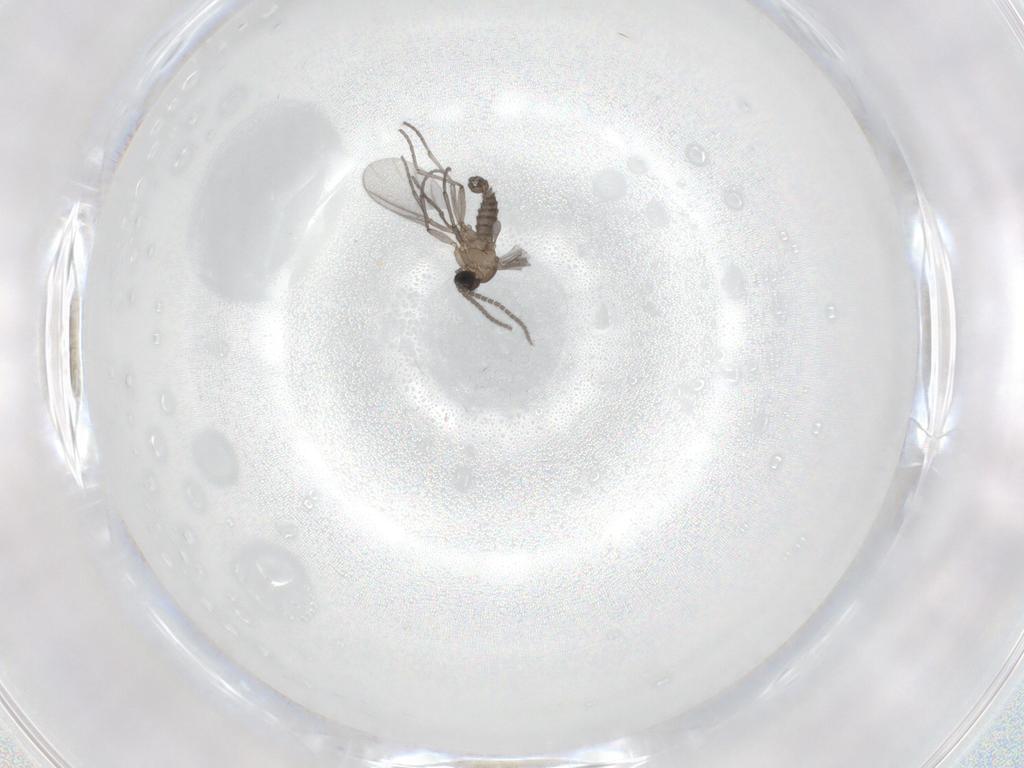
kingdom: Animalia
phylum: Arthropoda
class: Insecta
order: Diptera
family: Sciaridae
